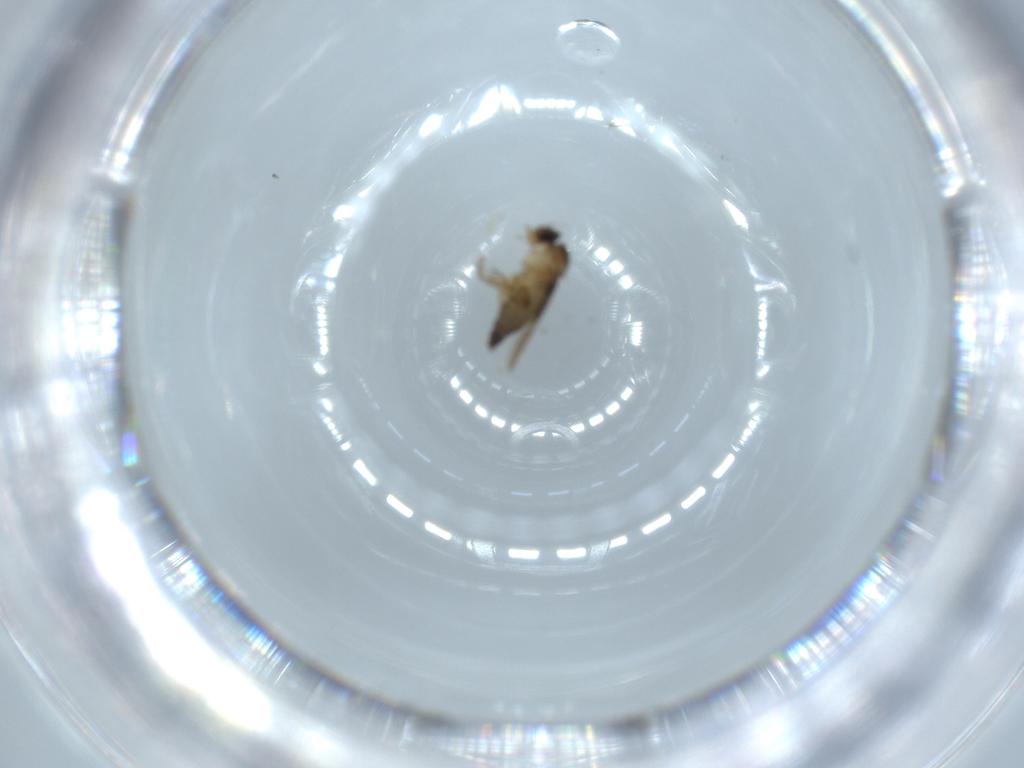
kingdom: Animalia
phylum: Arthropoda
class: Insecta
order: Diptera
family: Phoridae
